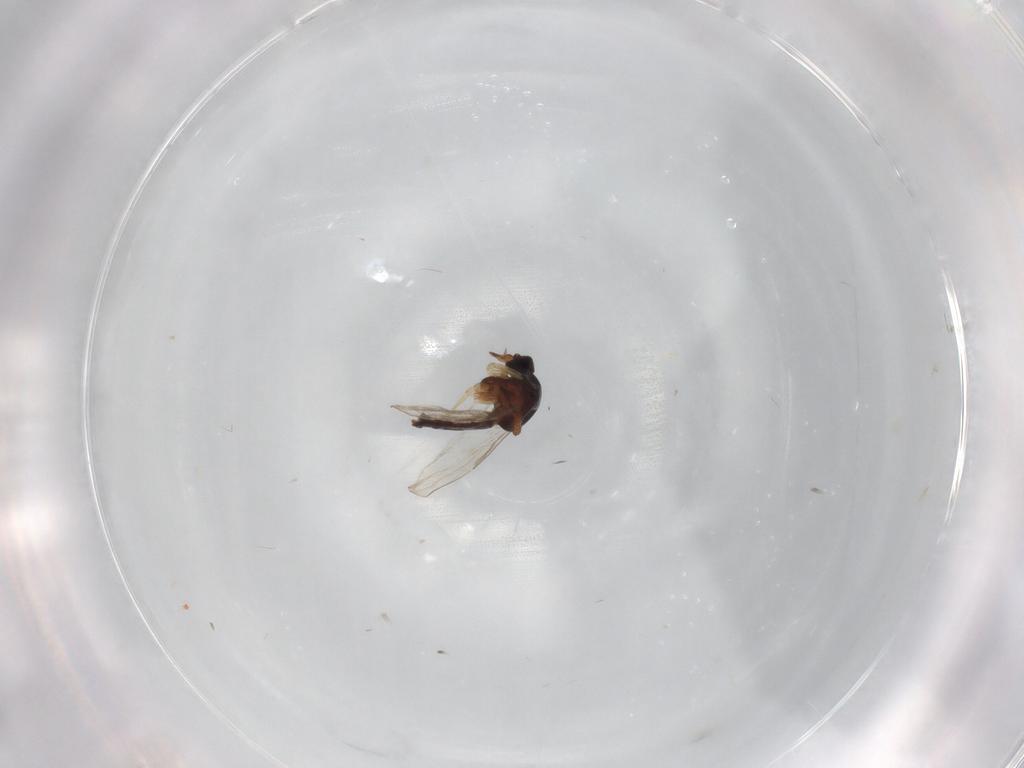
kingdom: Animalia
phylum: Arthropoda
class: Insecta
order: Diptera
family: Ceratopogonidae
